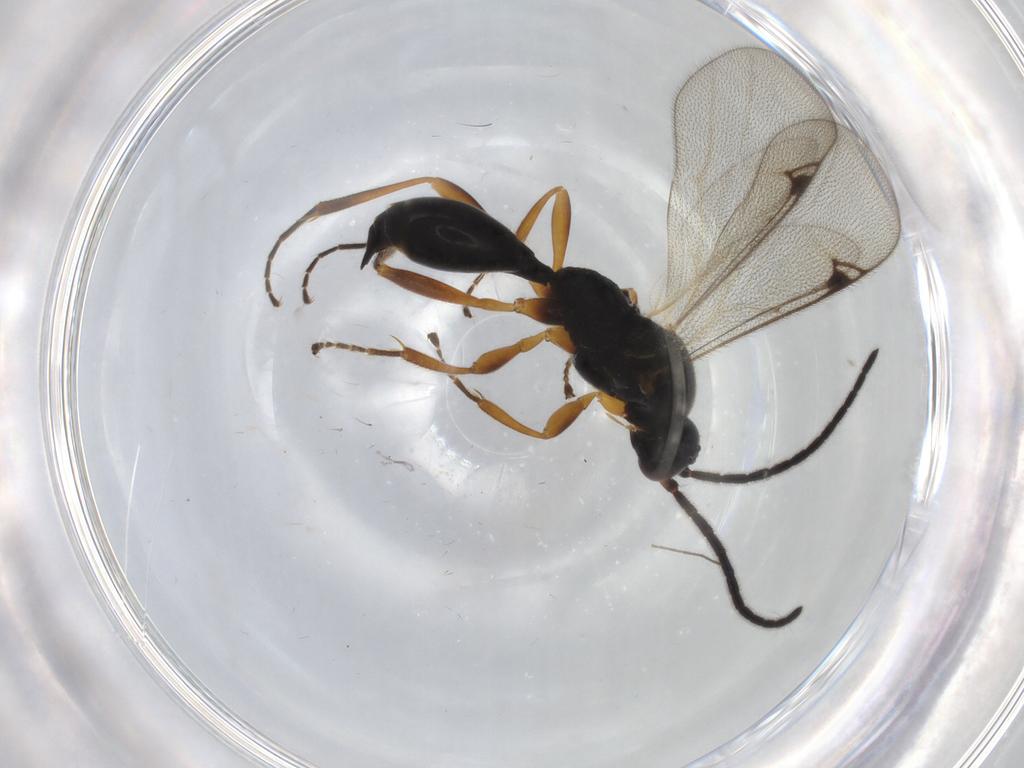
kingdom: Animalia
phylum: Arthropoda
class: Insecta
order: Hymenoptera
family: Proctotrupidae
